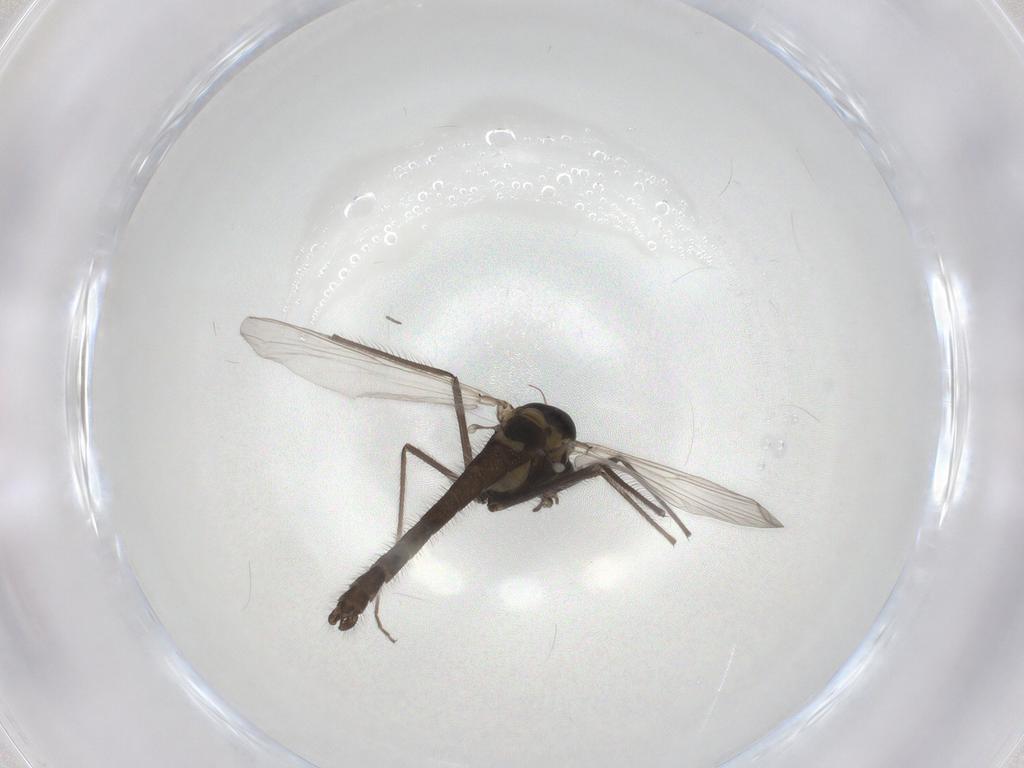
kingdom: Animalia
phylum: Arthropoda
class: Insecta
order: Diptera
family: Chironomidae
